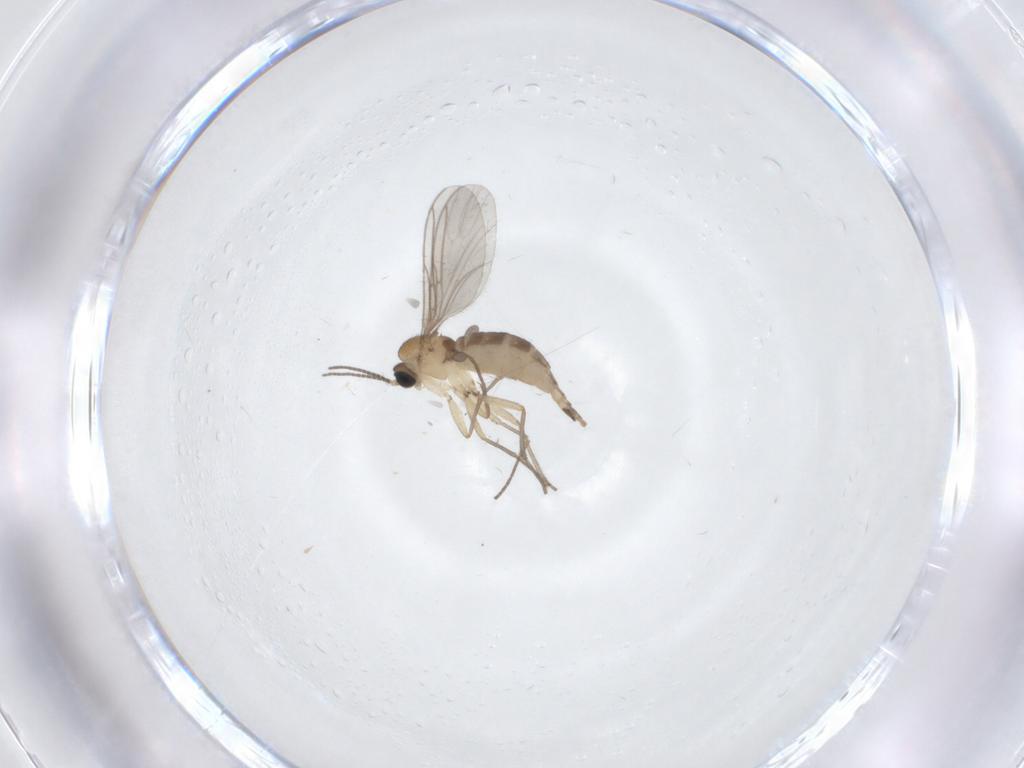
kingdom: Animalia
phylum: Arthropoda
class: Insecta
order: Diptera
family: Sciaridae
